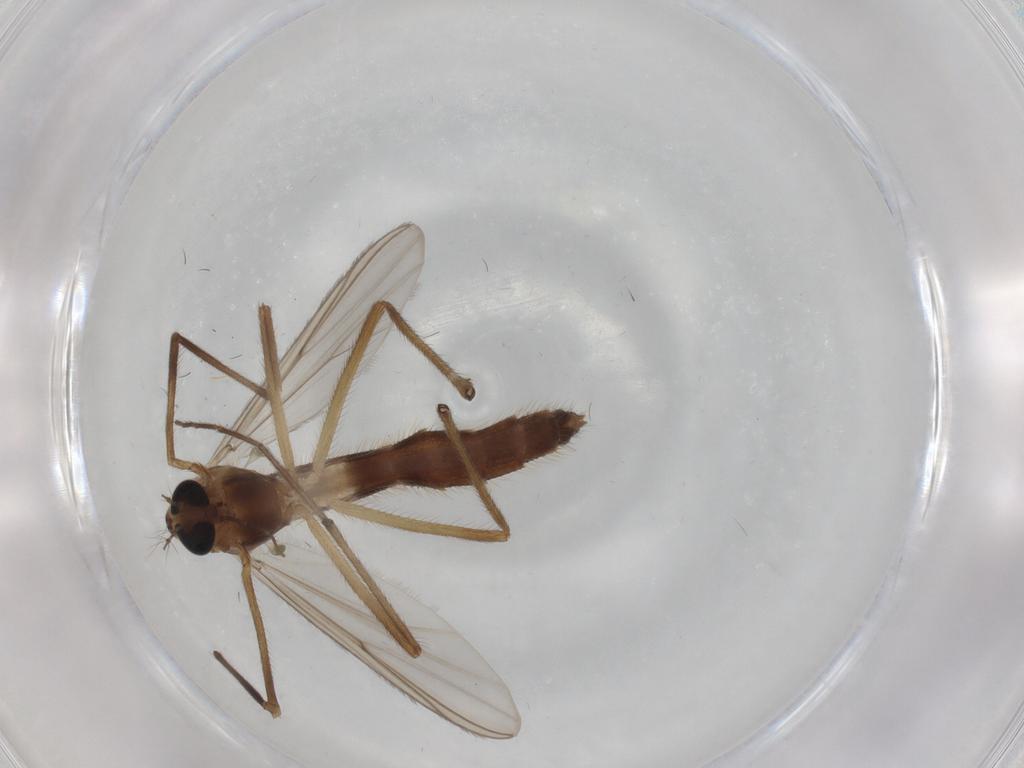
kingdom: Animalia
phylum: Arthropoda
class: Insecta
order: Diptera
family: Ceratopogonidae
